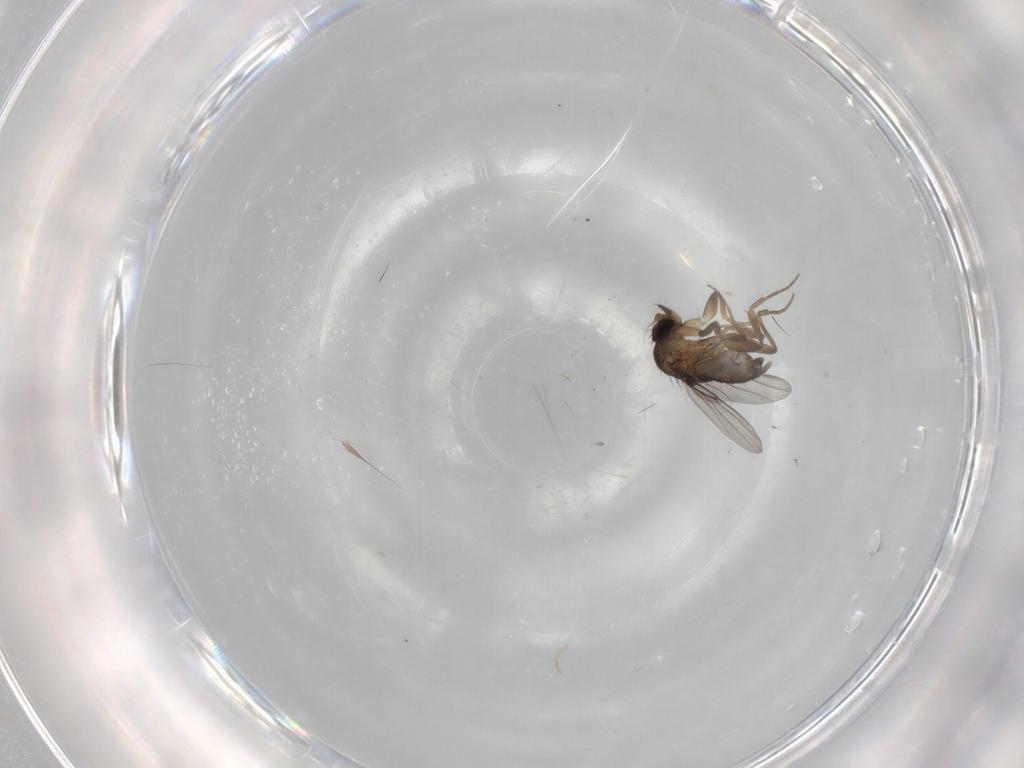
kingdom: Animalia
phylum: Arthropoda
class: Insecta
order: Diptera
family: Phoridae
